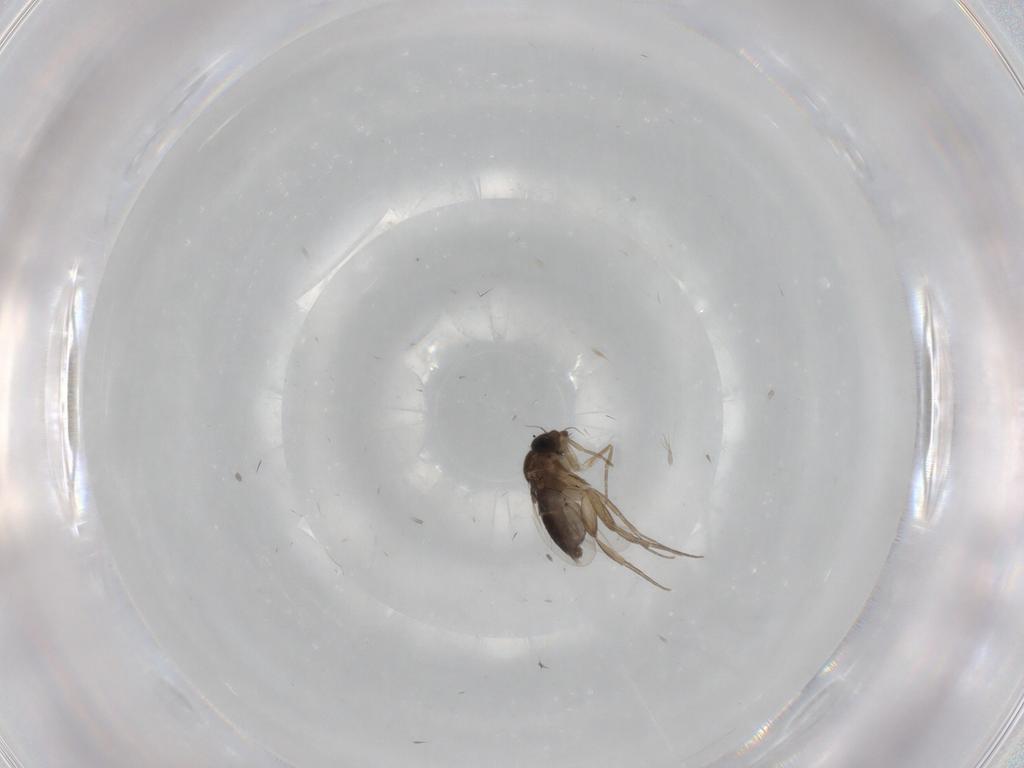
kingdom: Animalia
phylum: Arthropoda
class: Insecta
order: Diptera
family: Phoridae
